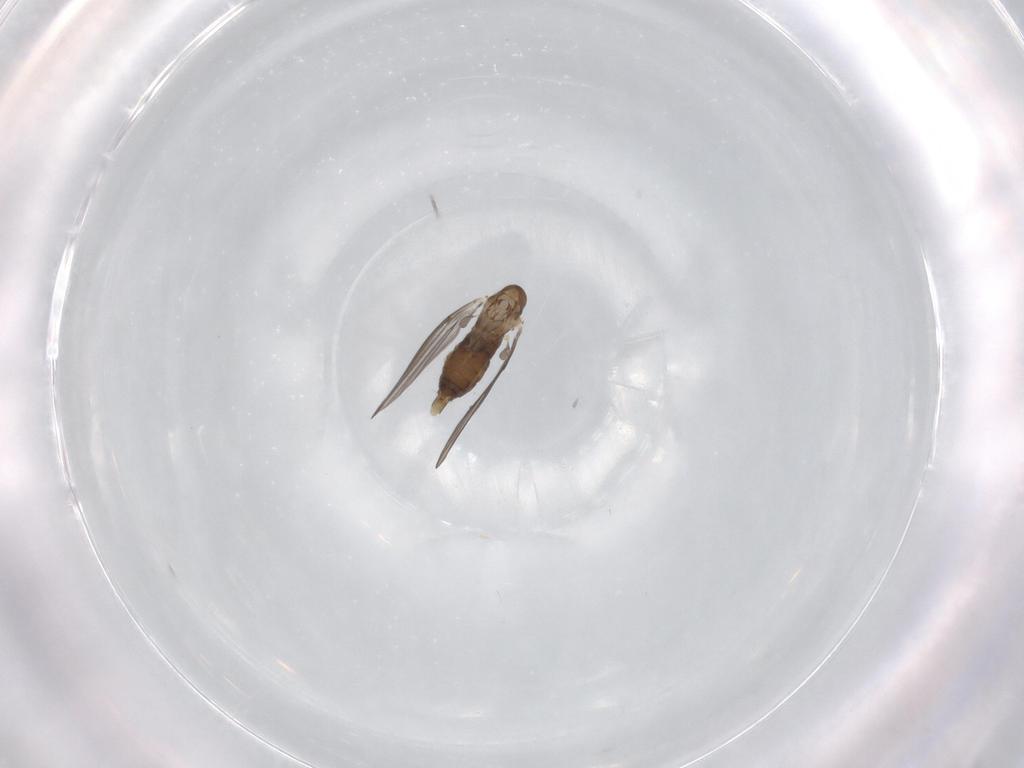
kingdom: Animalia
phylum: Arthropoda
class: Insecta
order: Diptera
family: Psychodidae
